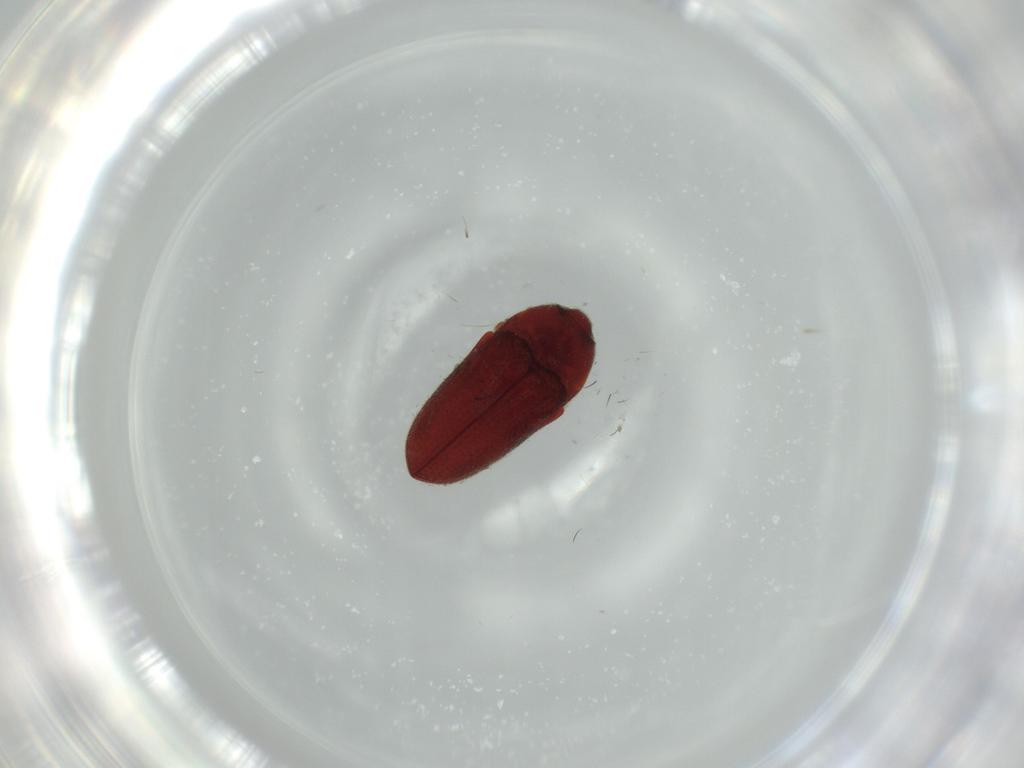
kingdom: Animalia
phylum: Arthropoda
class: Insecta
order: Coleoptera
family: Throscidae
